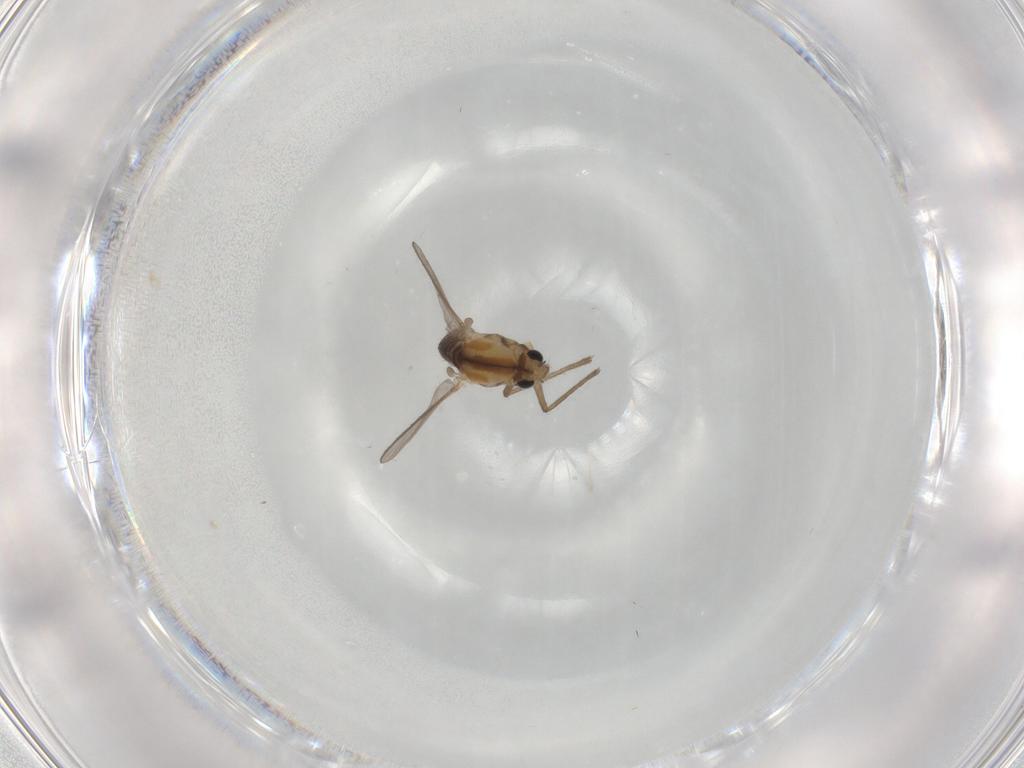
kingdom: Animalia
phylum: Arthropoda
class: Insecta
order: Diptera
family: Chironomidae
